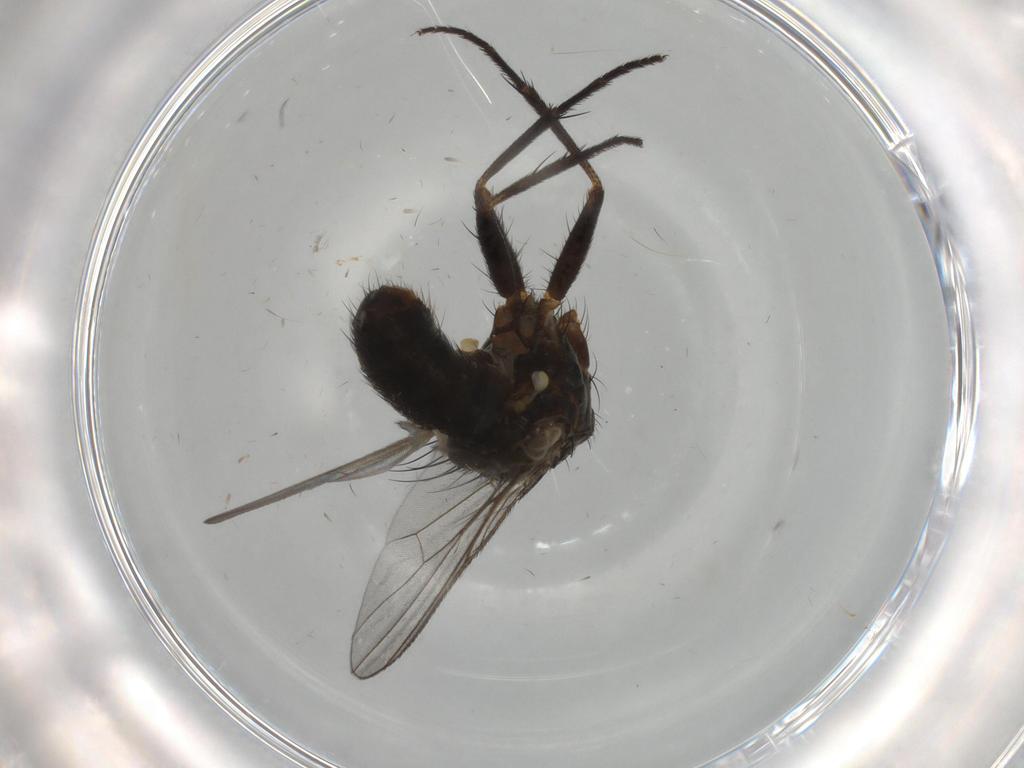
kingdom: Animalia
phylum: Arthropoda
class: Insecta
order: Diptera
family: Muscidae
